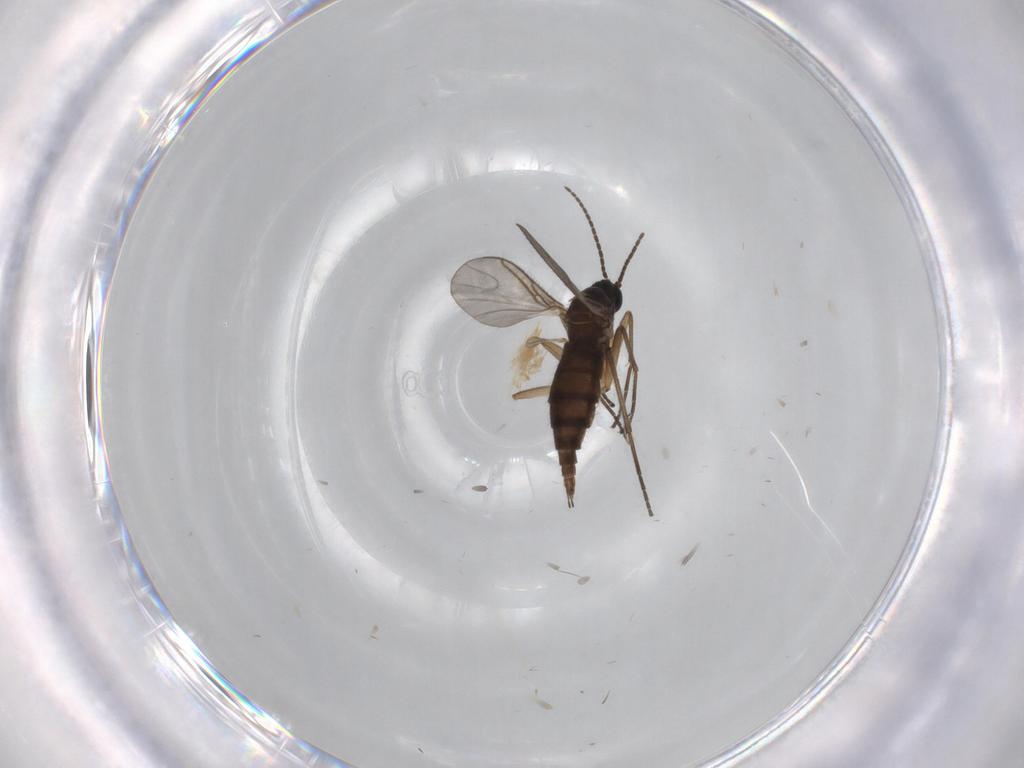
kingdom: Animalia
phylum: Arthropoda
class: Insecta
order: Diptera
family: Sciaridae
